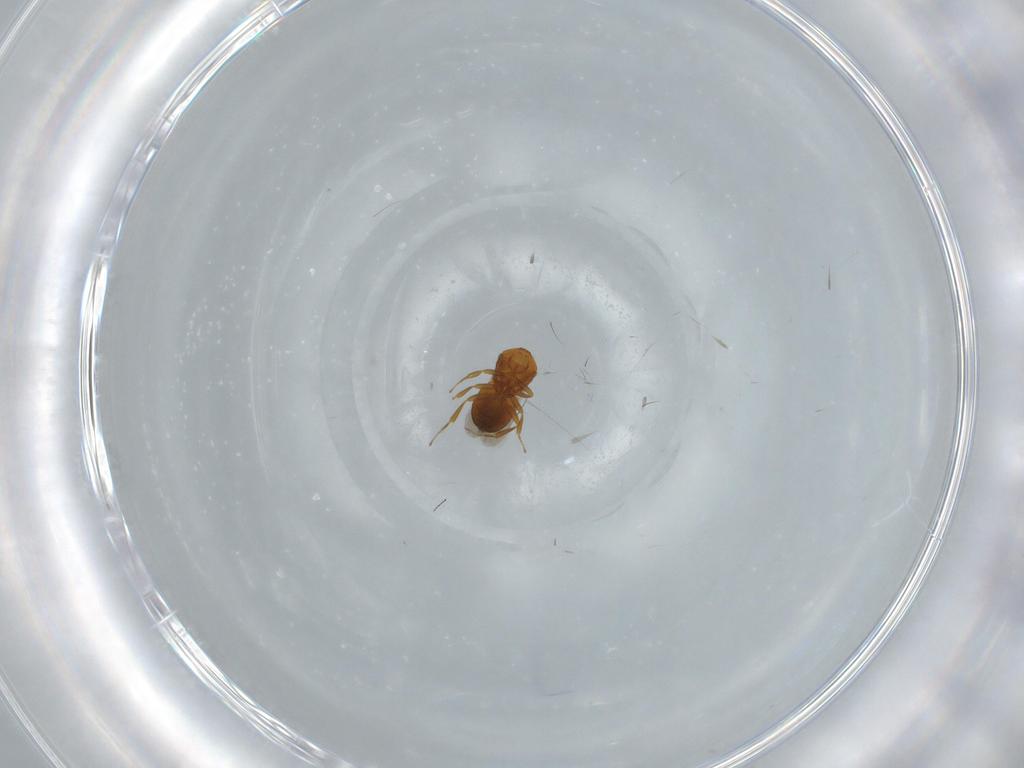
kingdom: Animalia
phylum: Arthropoda
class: Insecta
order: Hymenoptera
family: Scelionidae
